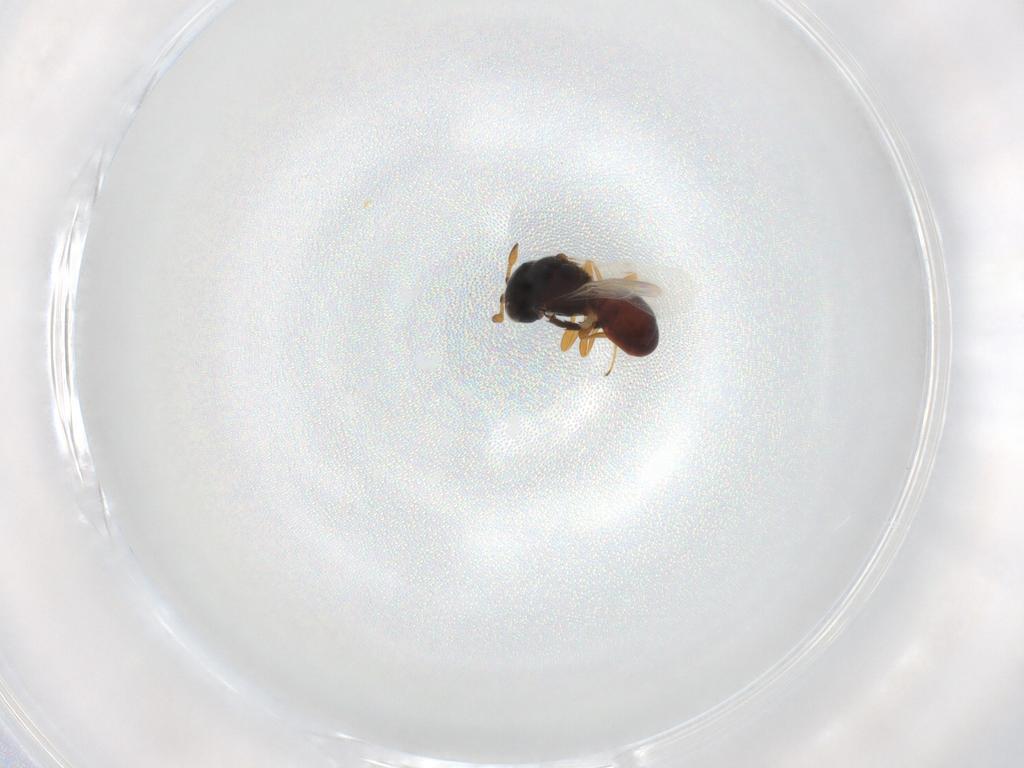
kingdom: Animalia
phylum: Arthropoda
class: Insecta
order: Hymenoptera
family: Scelionidae
